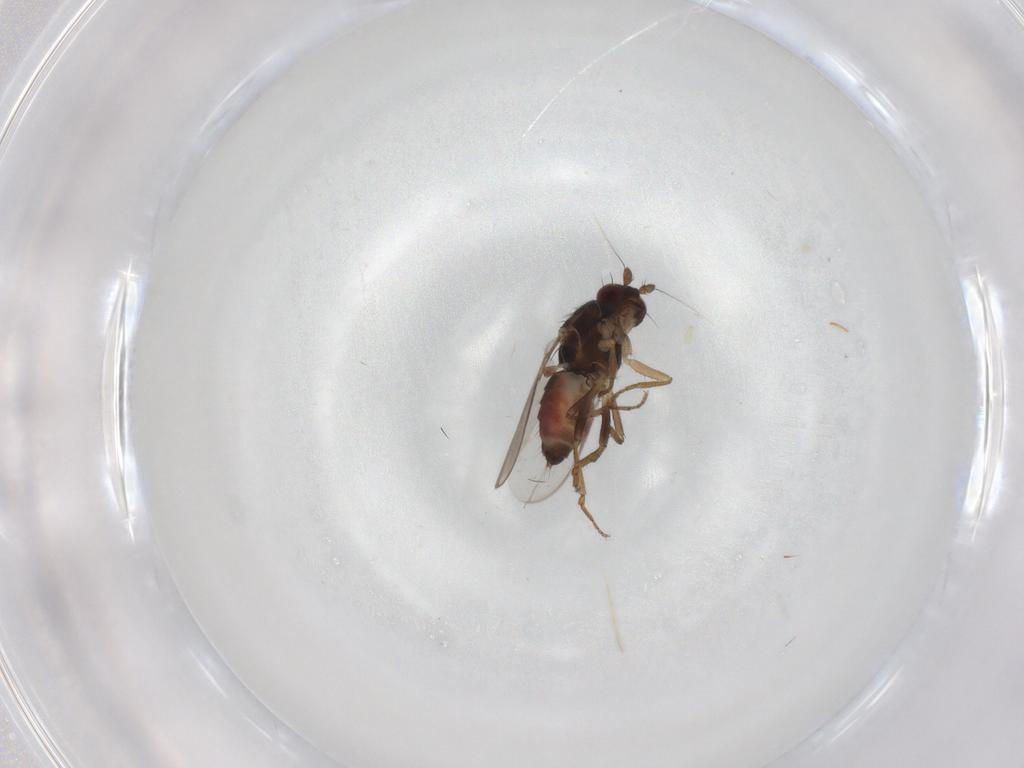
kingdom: Animalia
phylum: Arthropoda
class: Insecta
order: Diptera
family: Sphaeroceridae
